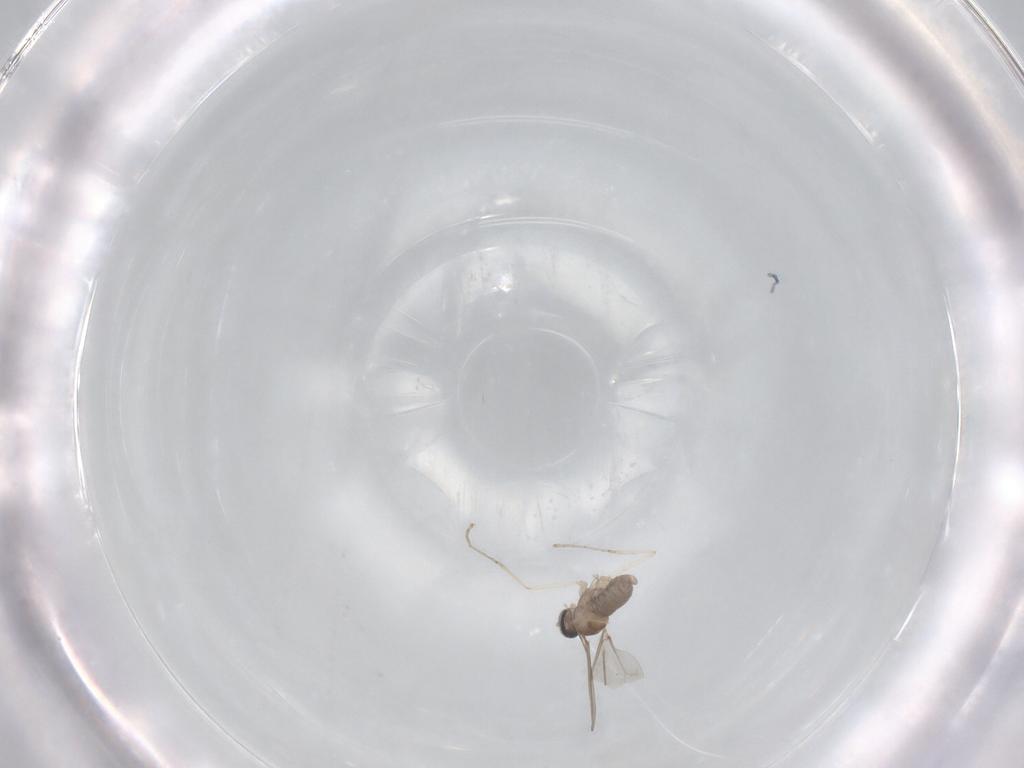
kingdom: Animalia
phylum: Arthropoda
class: Insecta
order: Diptera
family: Cecidomyiidae
